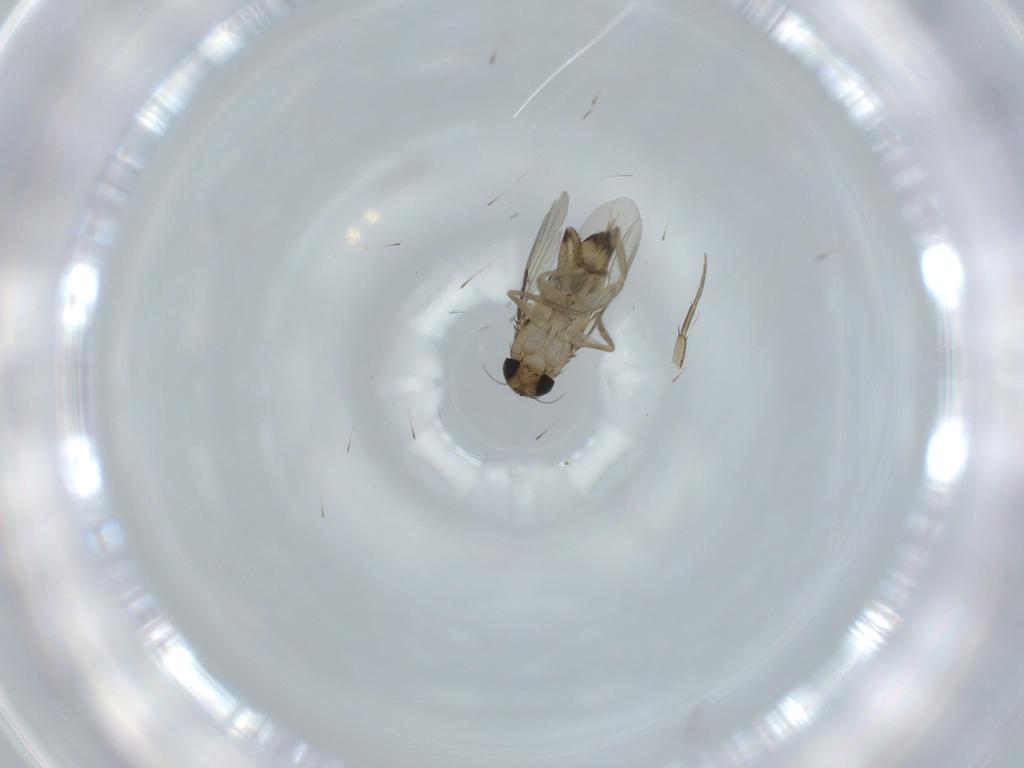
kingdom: Animalia
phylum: Arthropoda
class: Insecta
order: Diptera
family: Phoridae
